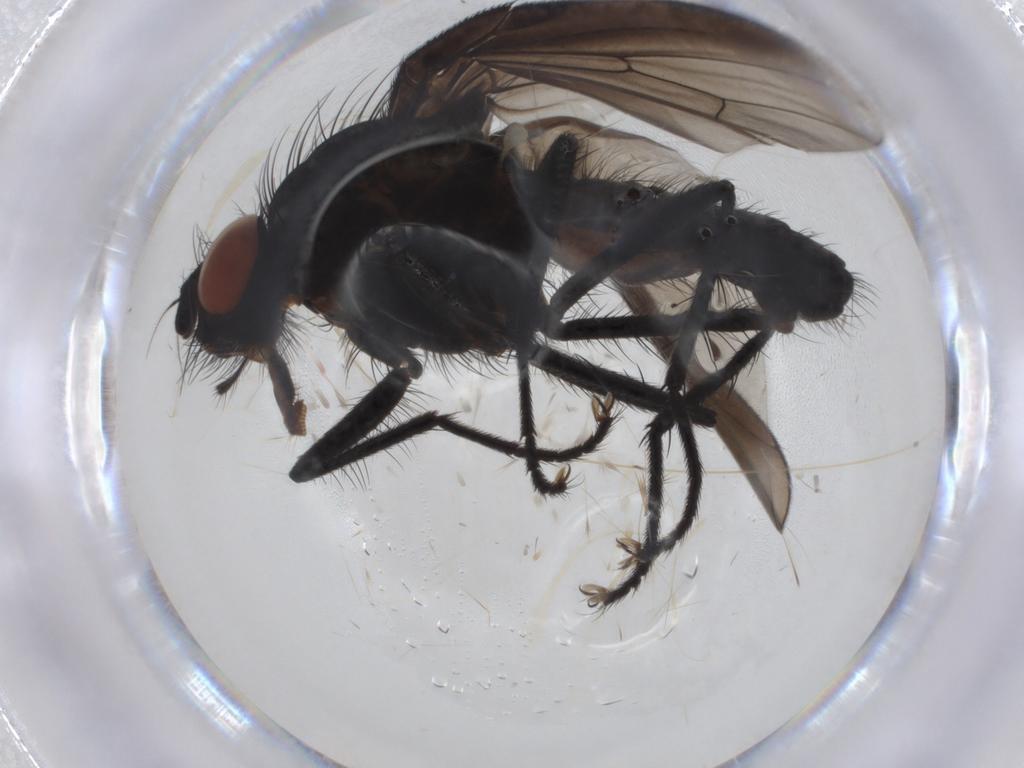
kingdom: Animalia
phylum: Arthropoda
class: Insecta
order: Diptera
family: Anthomyiidae
